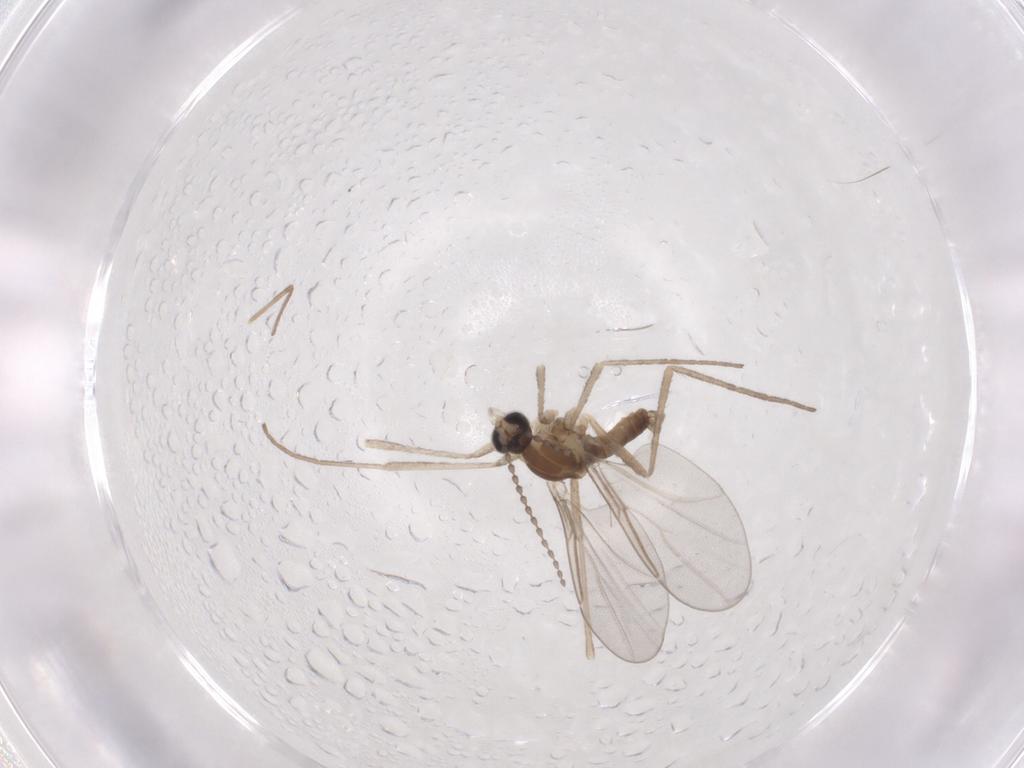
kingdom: Animalia
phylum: Arthropoda
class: Insecta
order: Diptera
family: Cecidomyiidae
